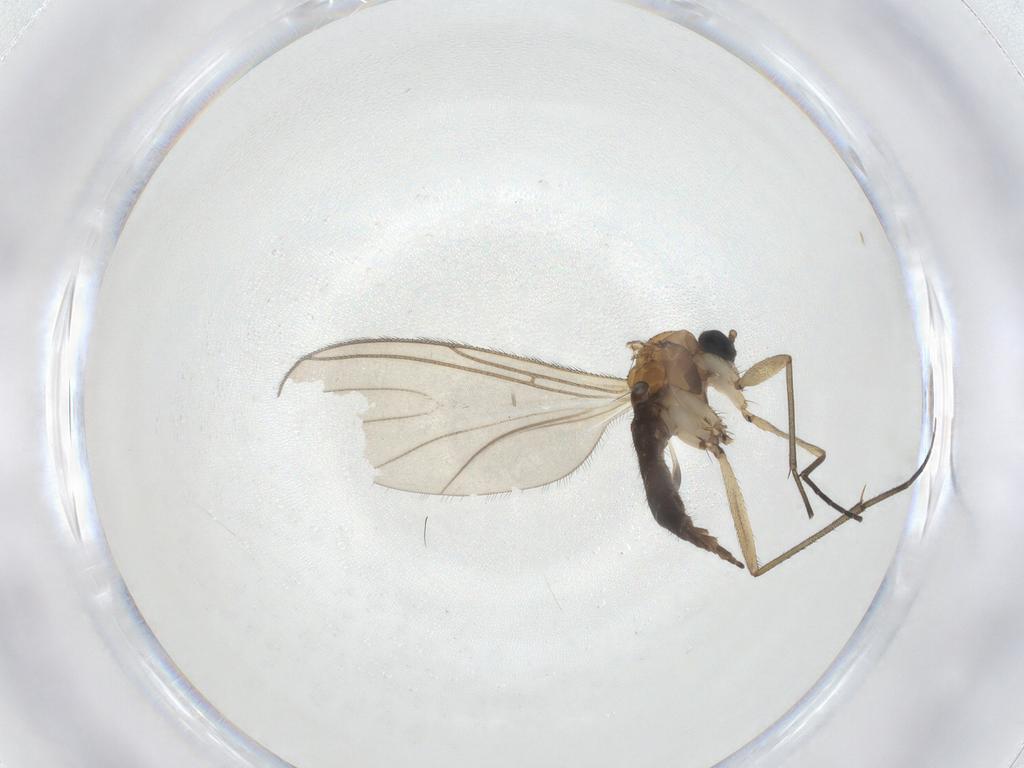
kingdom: Animalia
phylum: Arthropoda
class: Insecta
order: Diptera
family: Sciaridae
